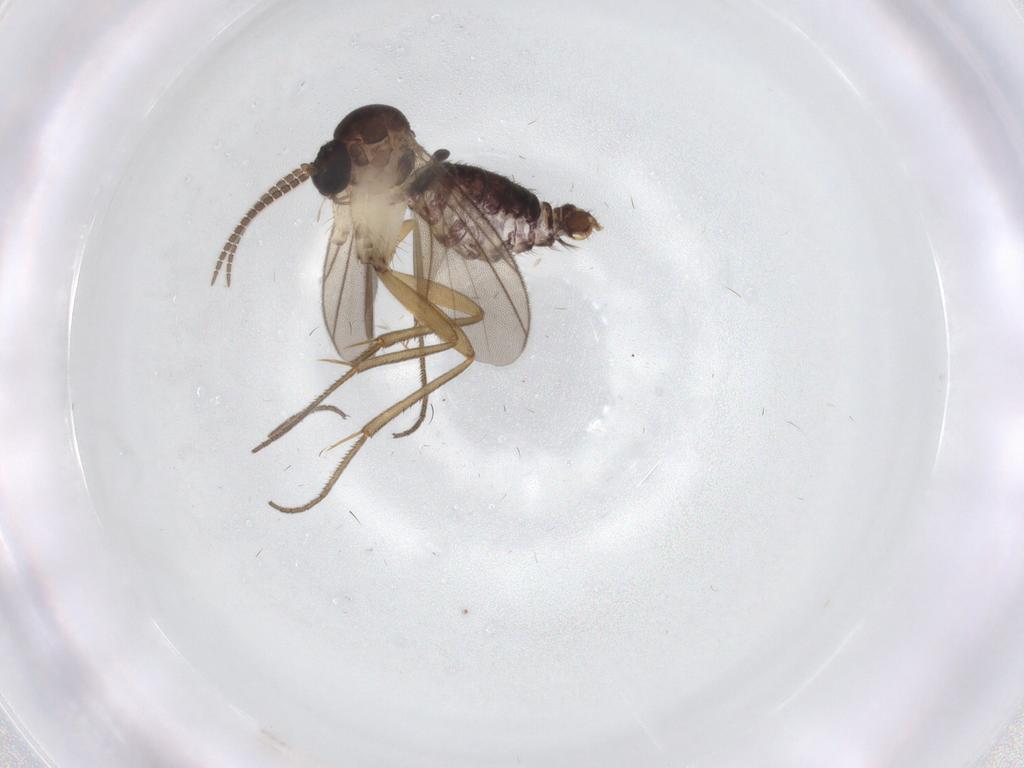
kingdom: Animalia
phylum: Arthropoda
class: Insecta
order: Diptera
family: Mycetophilidae
